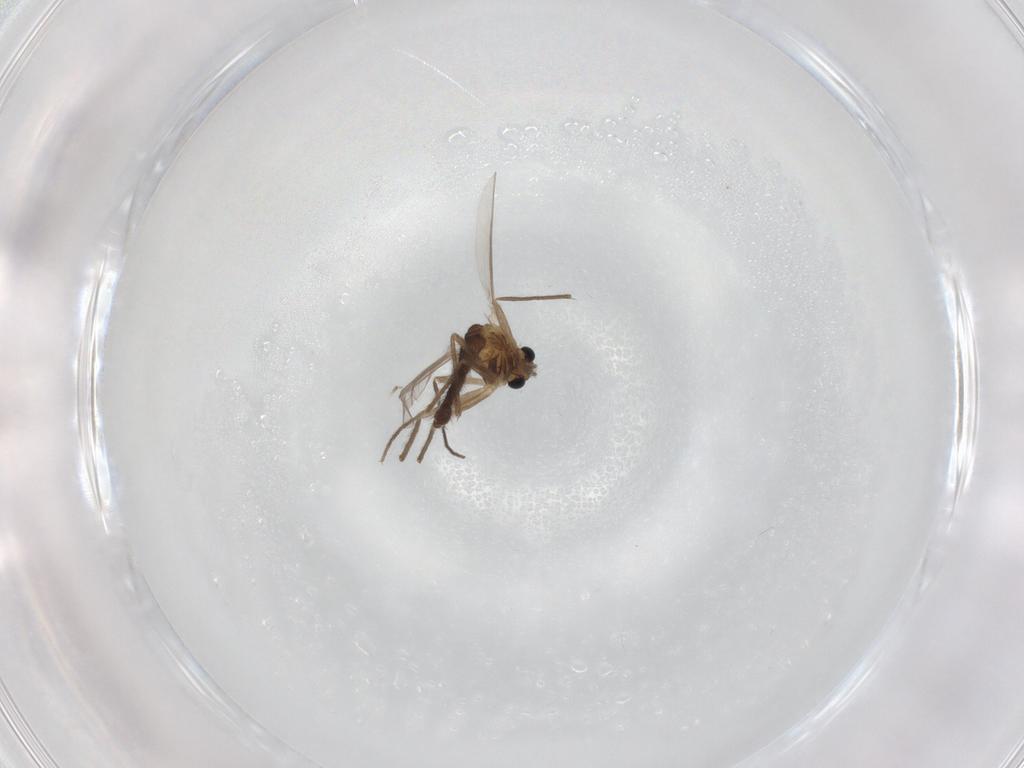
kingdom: Animalia
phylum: Arthropoda
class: Insecta
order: Diptera
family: Chironomidae
